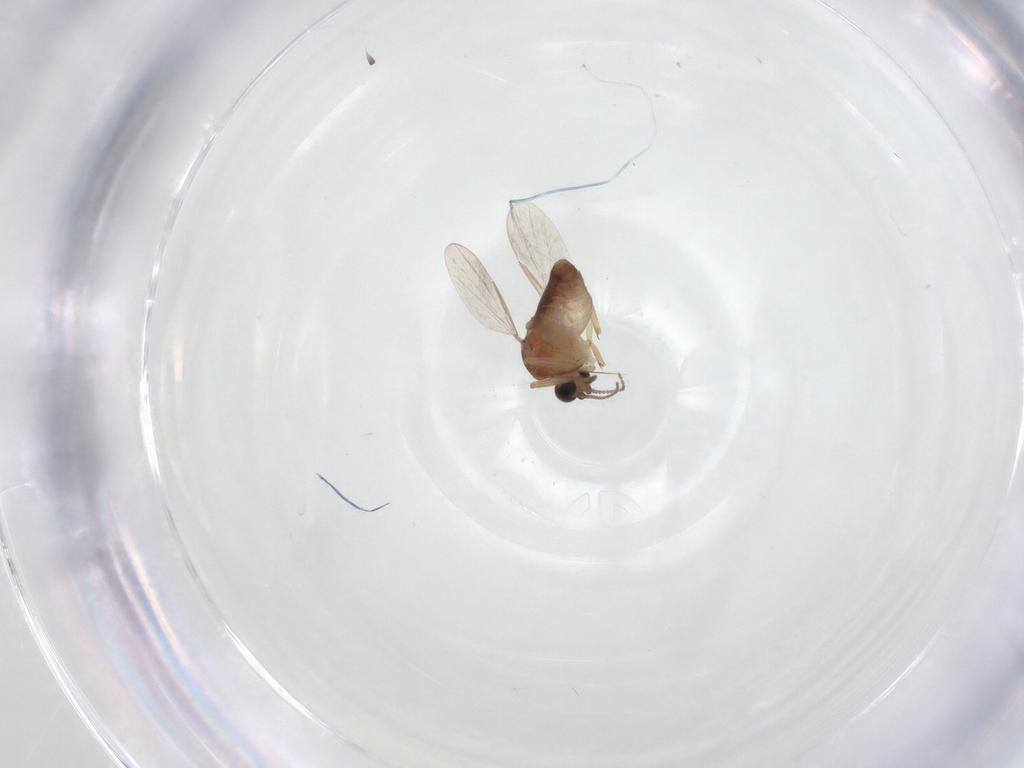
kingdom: Animalia
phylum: Arthropoda
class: Insecta
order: Diptera
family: Ceratopogonidae
